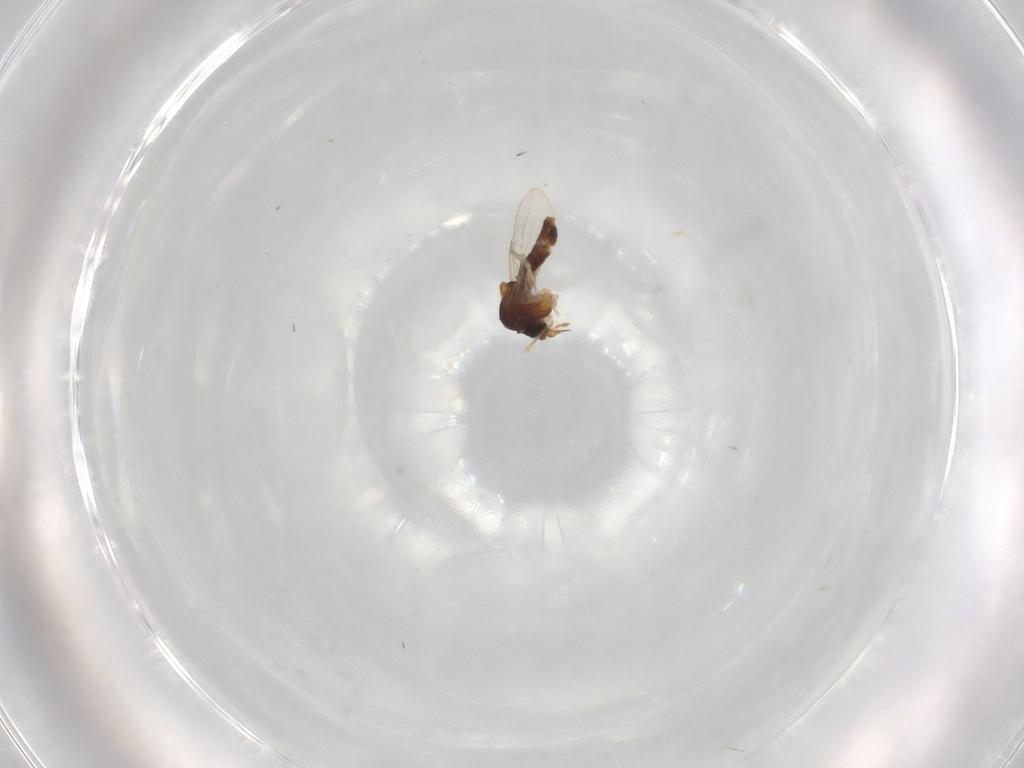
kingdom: Animalia
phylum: Arthropoda
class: Insecta
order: Diptera
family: Ceratopogonidae
